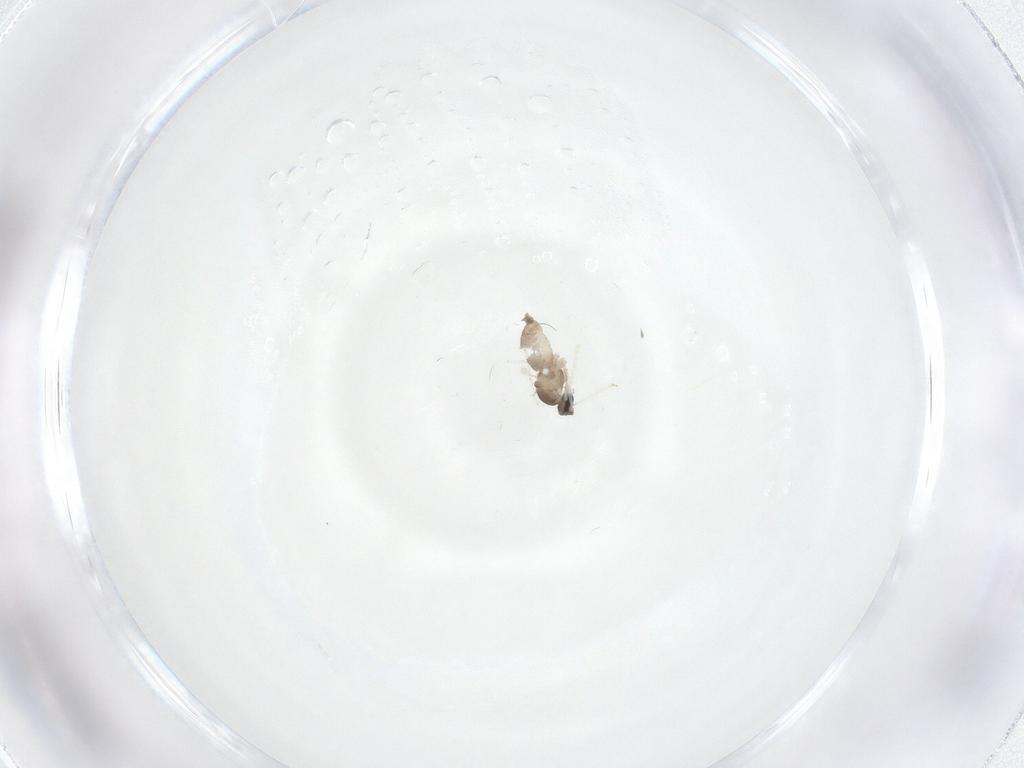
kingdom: Animalia
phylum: Arthropoda
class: Insecta
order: Diptera
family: Cecidomyiidae
